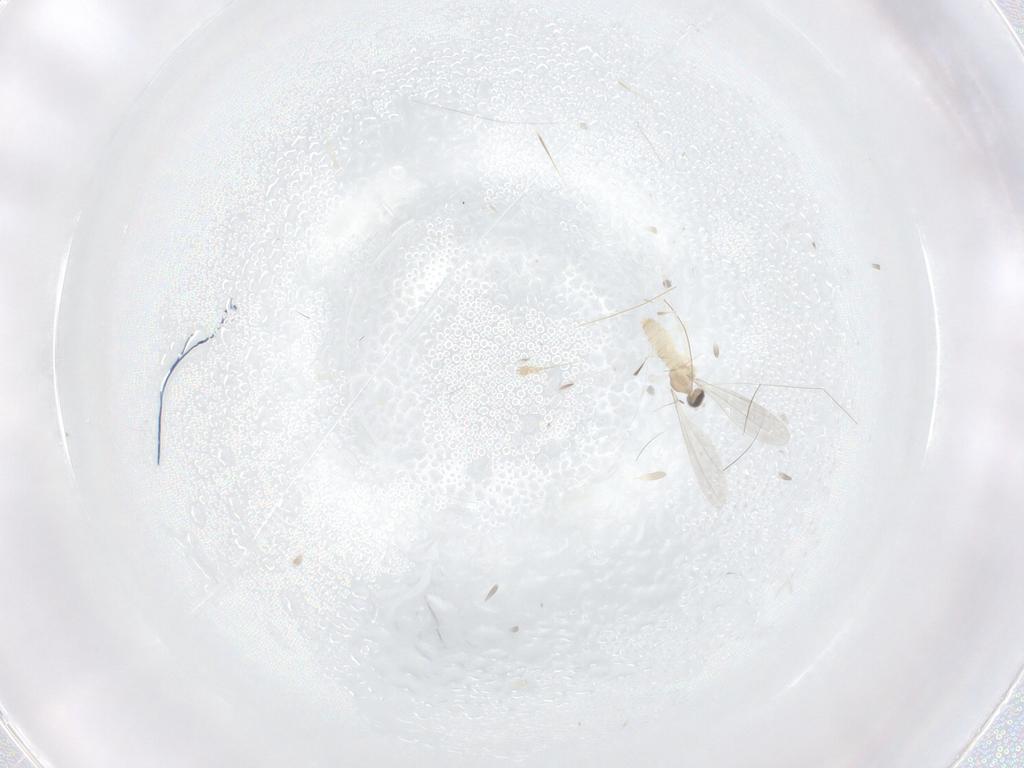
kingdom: Animalia
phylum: Arthropoda
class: Insecta
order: Diptera
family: Cecidomyiidae
